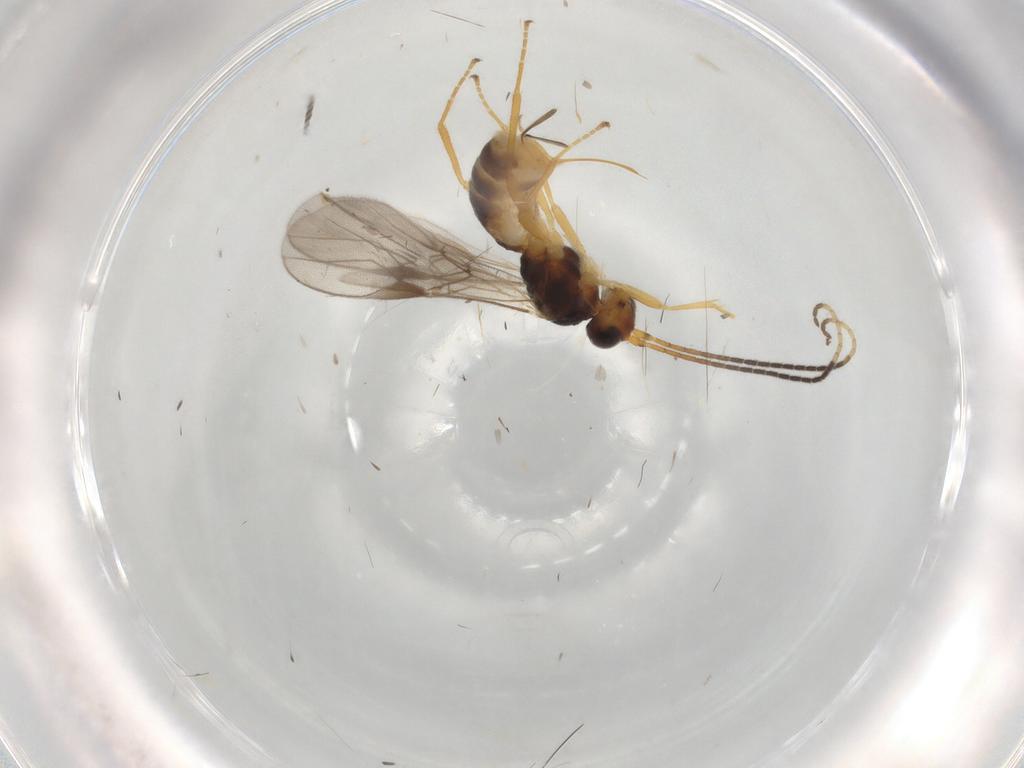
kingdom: Animalia
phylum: Arthropoda
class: Insecta
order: Hymenoptera
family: Braconidae
